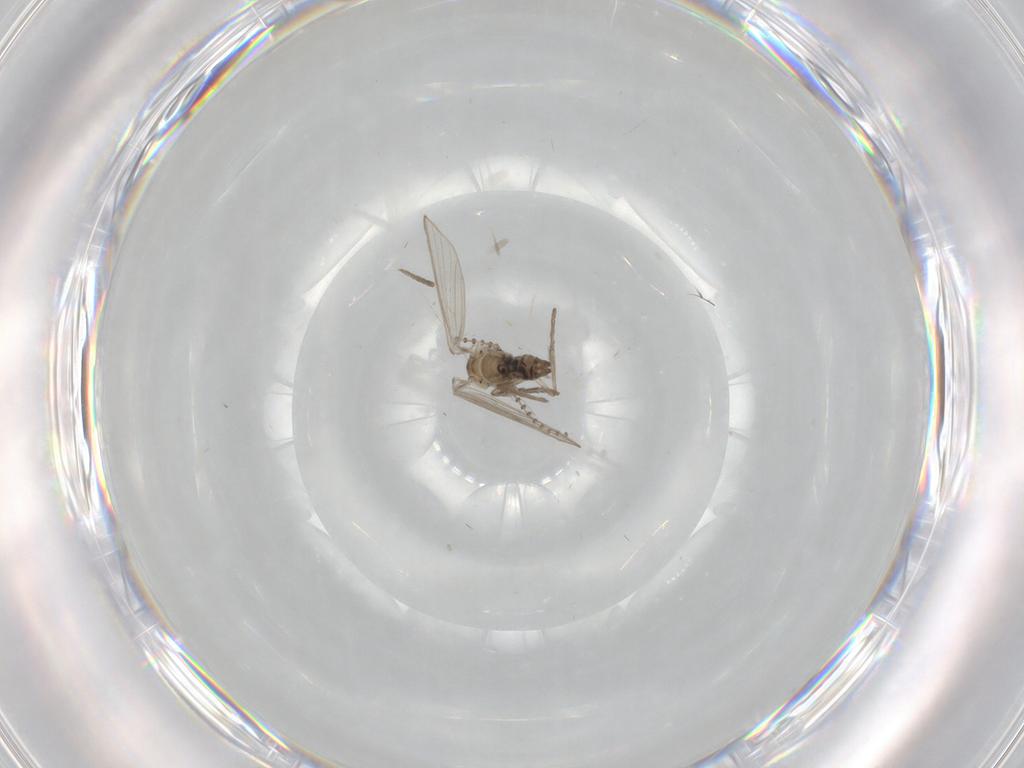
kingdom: Animalia
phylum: Arthropoda
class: Insecta
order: Diptera
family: Psychodidae
